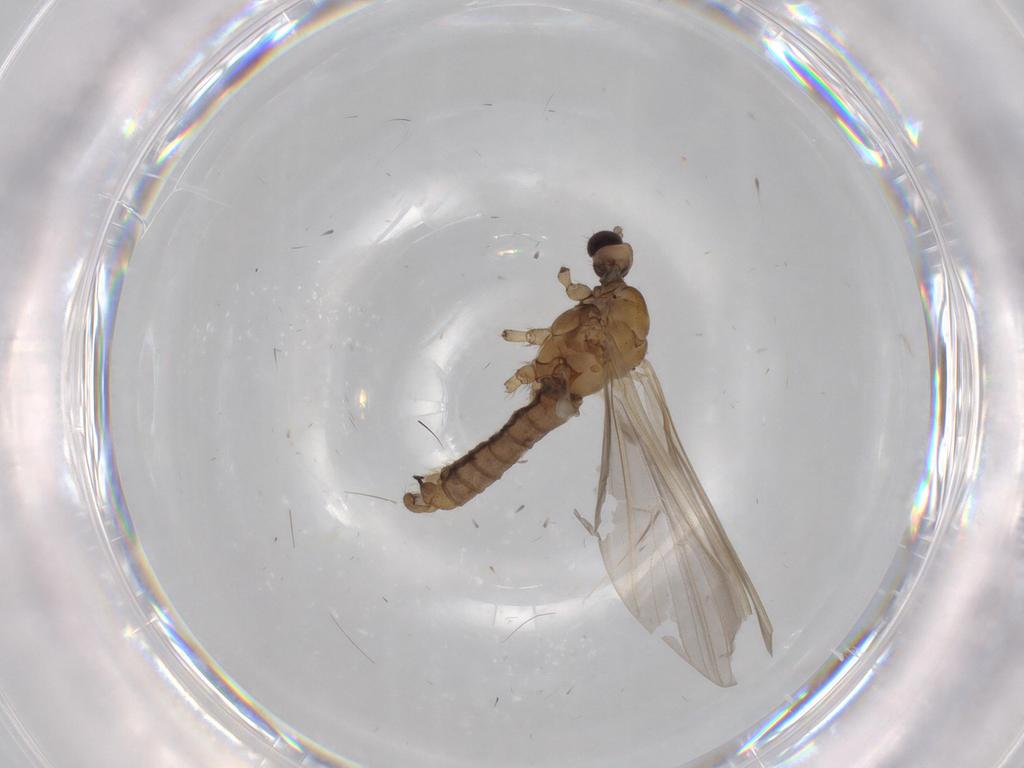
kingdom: Animalia
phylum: Arthropoda
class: Insecta
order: Diptera
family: Limoniidae
